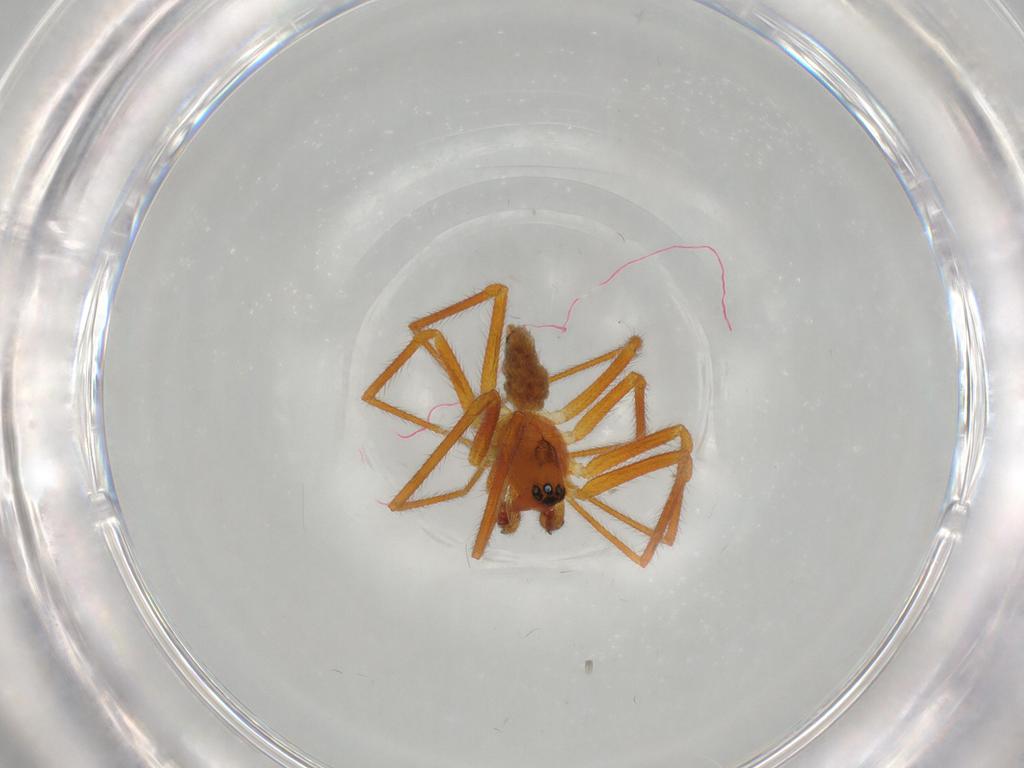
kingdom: Animalia
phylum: Arthropoda
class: Arachnida
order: Araneae
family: Linyphiidae
